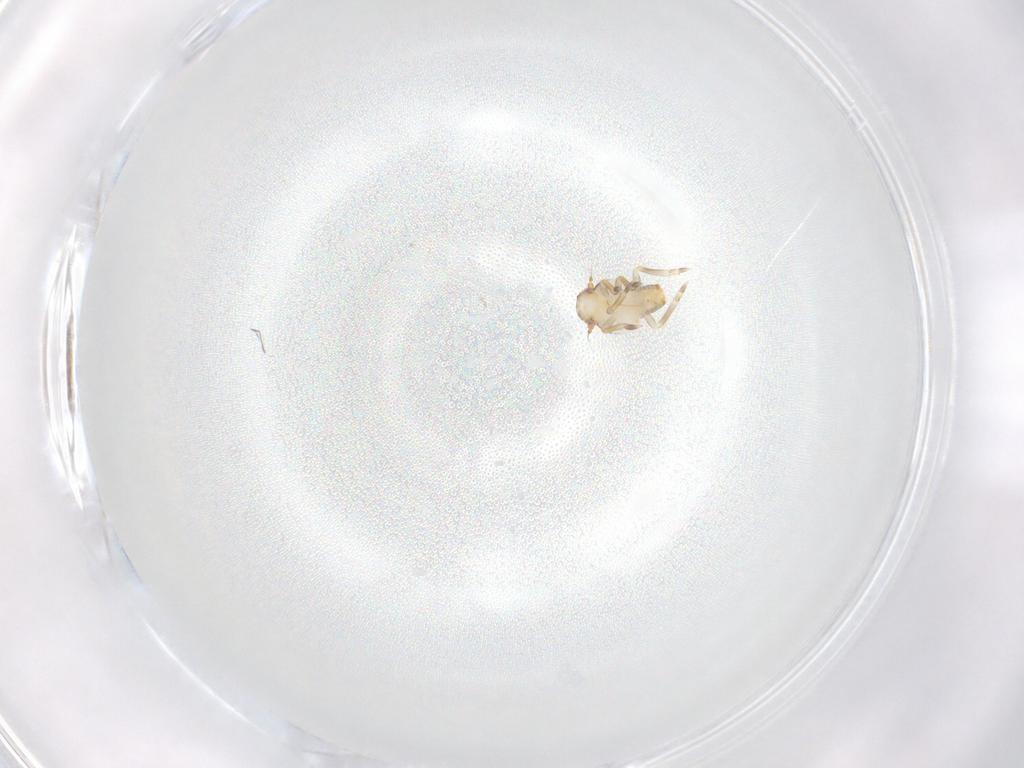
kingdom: Animalia
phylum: Arthropoda
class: Insecta
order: Hemiptera
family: Flatidae
